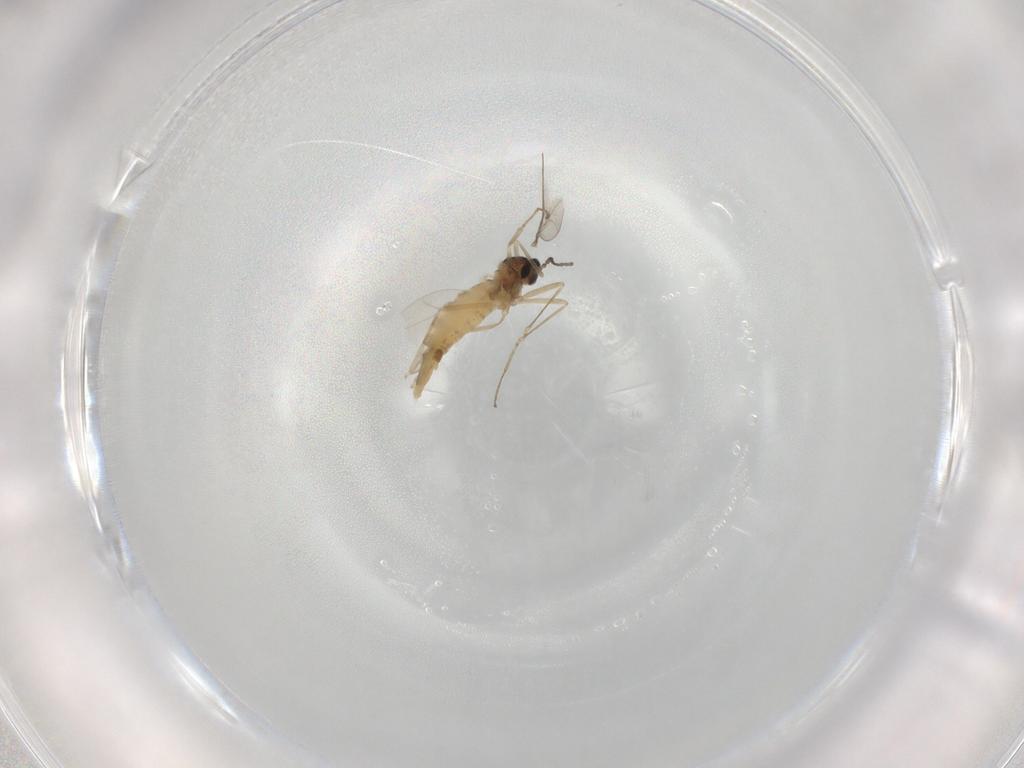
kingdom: Animalia
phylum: Arthropoda
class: Insecta
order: Diptera
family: Cecidomyiidae
